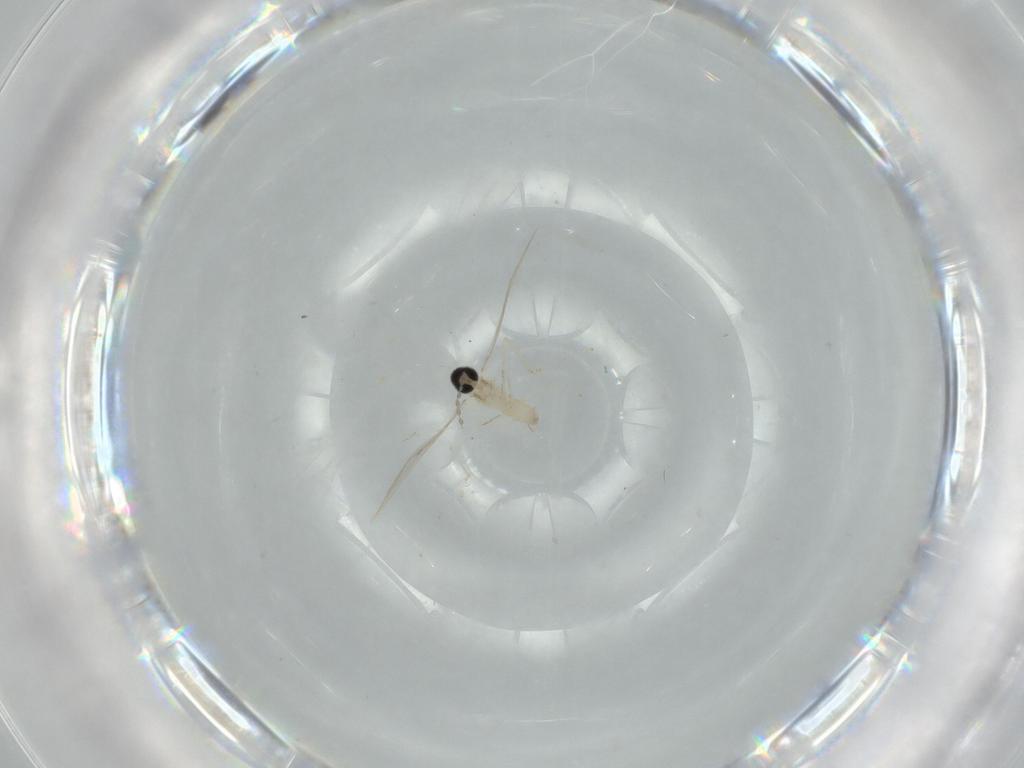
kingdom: Animalia
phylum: Arthropoda
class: Insecta
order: Diptera
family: Cecidomyiidae
